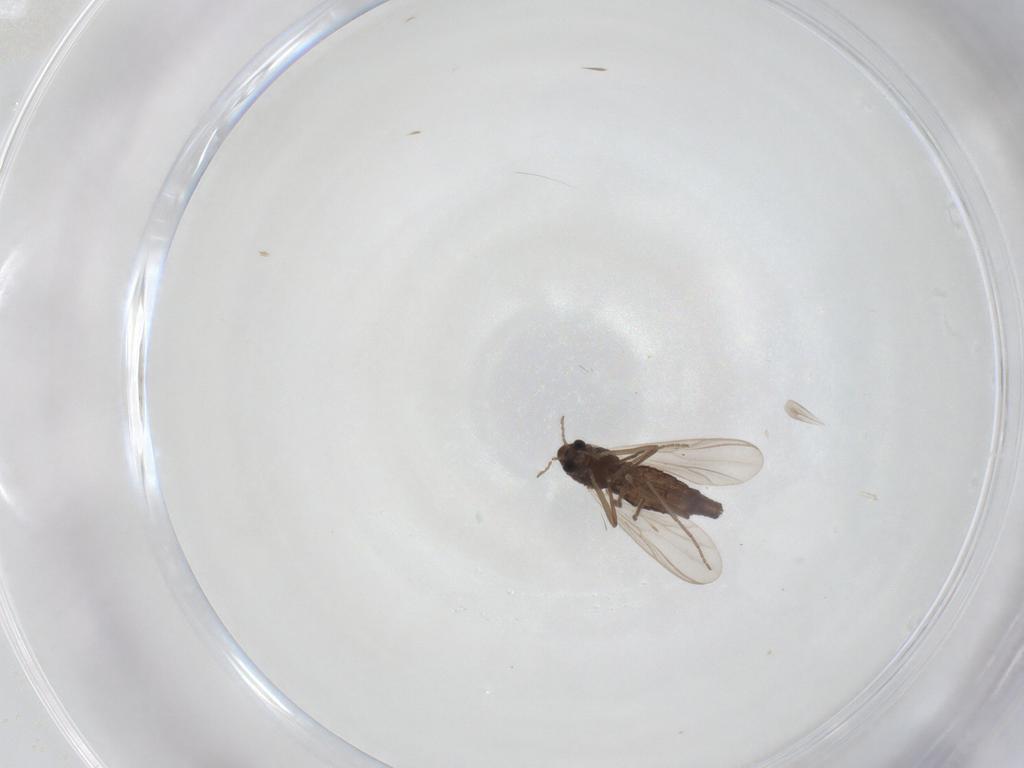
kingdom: Animalia
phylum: Arthropoda
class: Insecta
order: Diptera
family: Chironomidae
